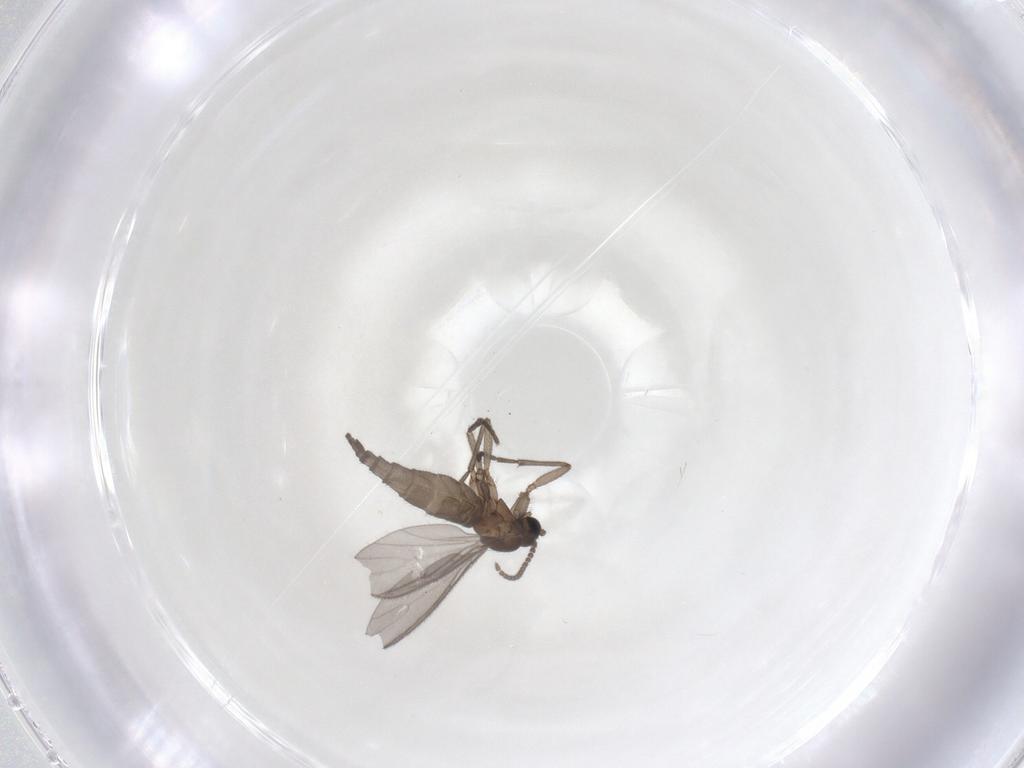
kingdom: Animalia
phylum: Arthropoda
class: Insecta
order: Diptera
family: Sciaridae
